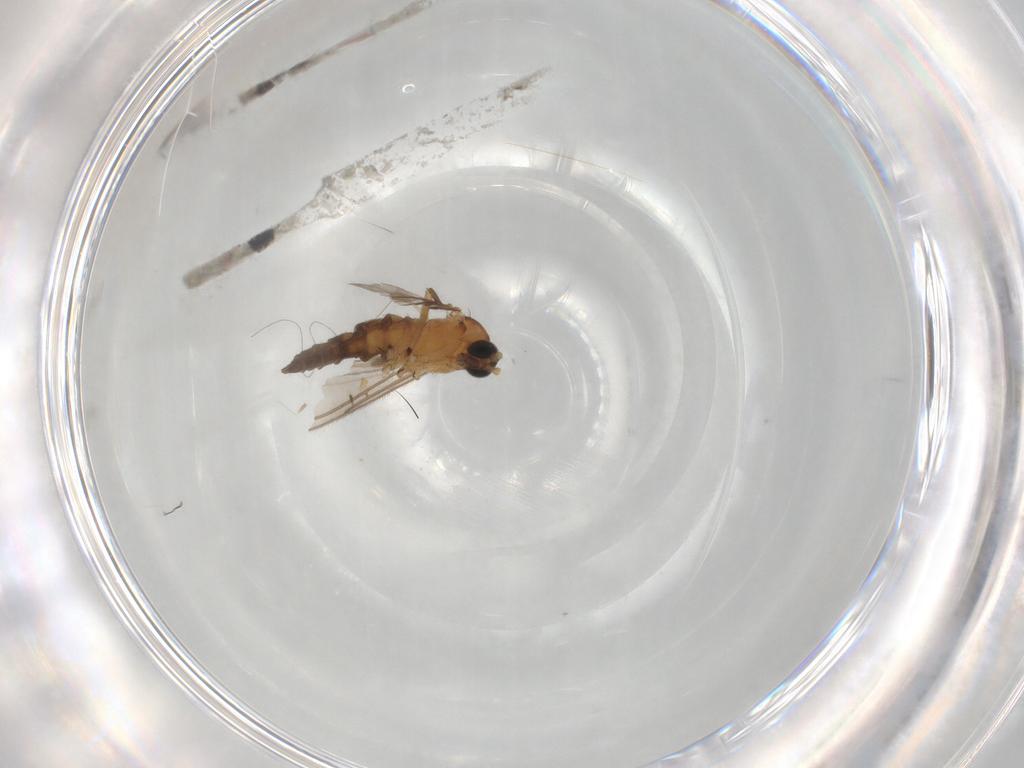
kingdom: Animalia
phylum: Arthropoda
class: Insecta
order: Diptera
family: Sciaridae
